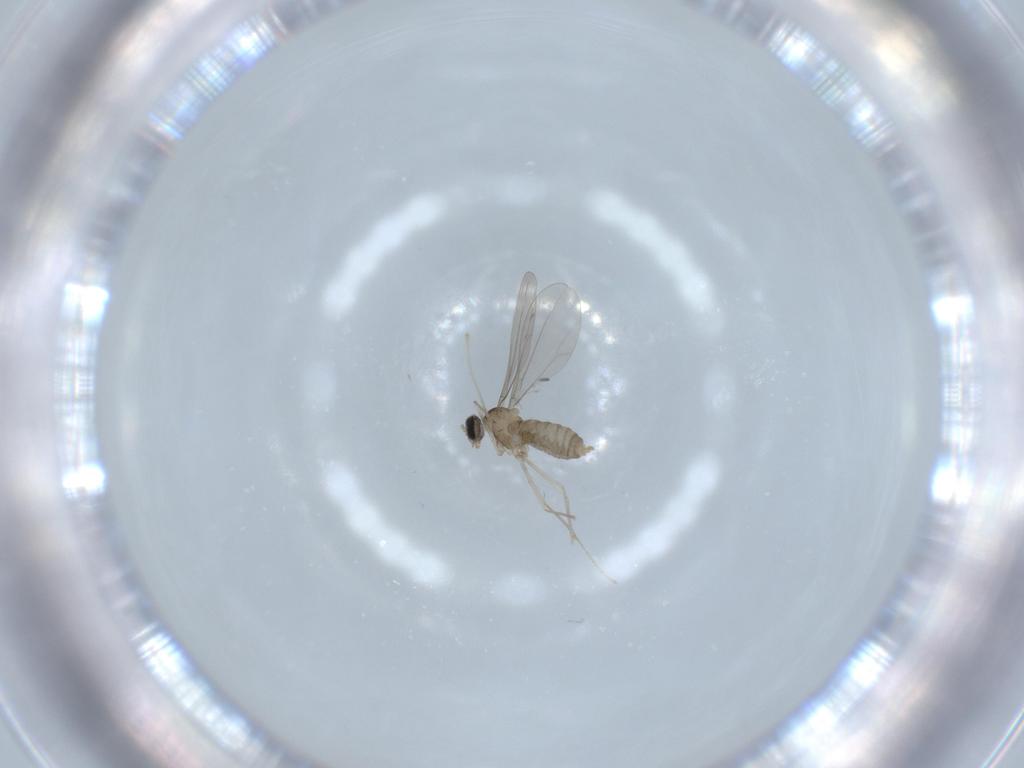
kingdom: Animalia
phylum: Arthropoda
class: Insecta
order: Diptera
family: Cecidomyiidae
